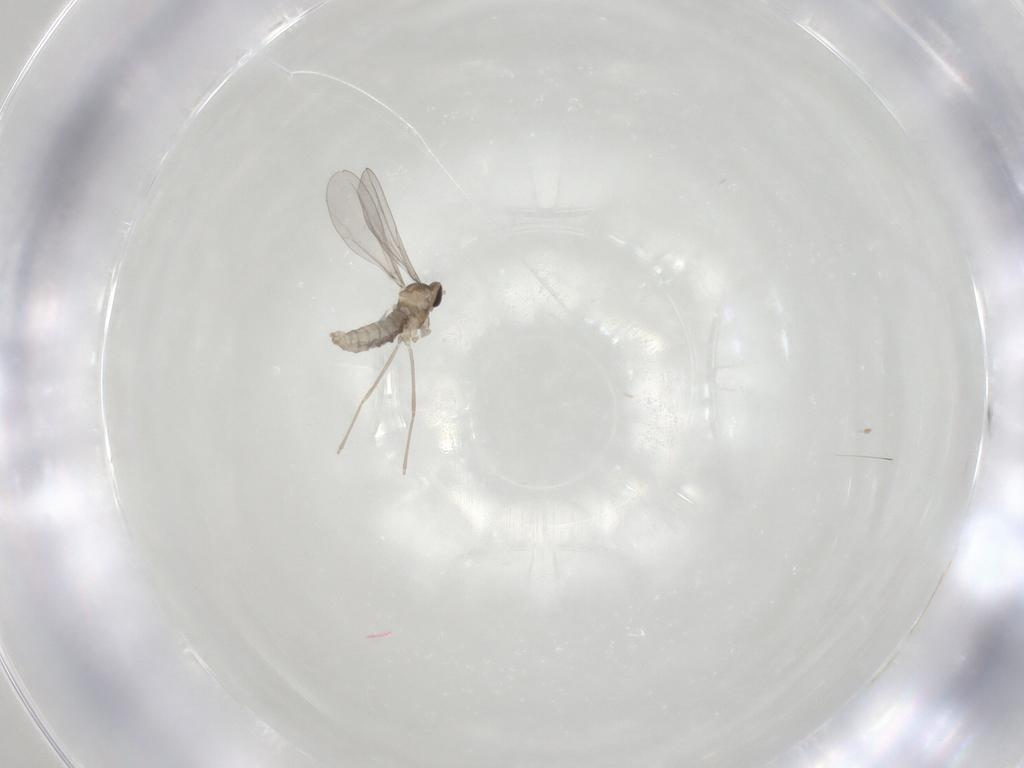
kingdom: Animalia
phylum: Arthropoda
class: Insecta
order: Diptera
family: Cecidomyiidae
